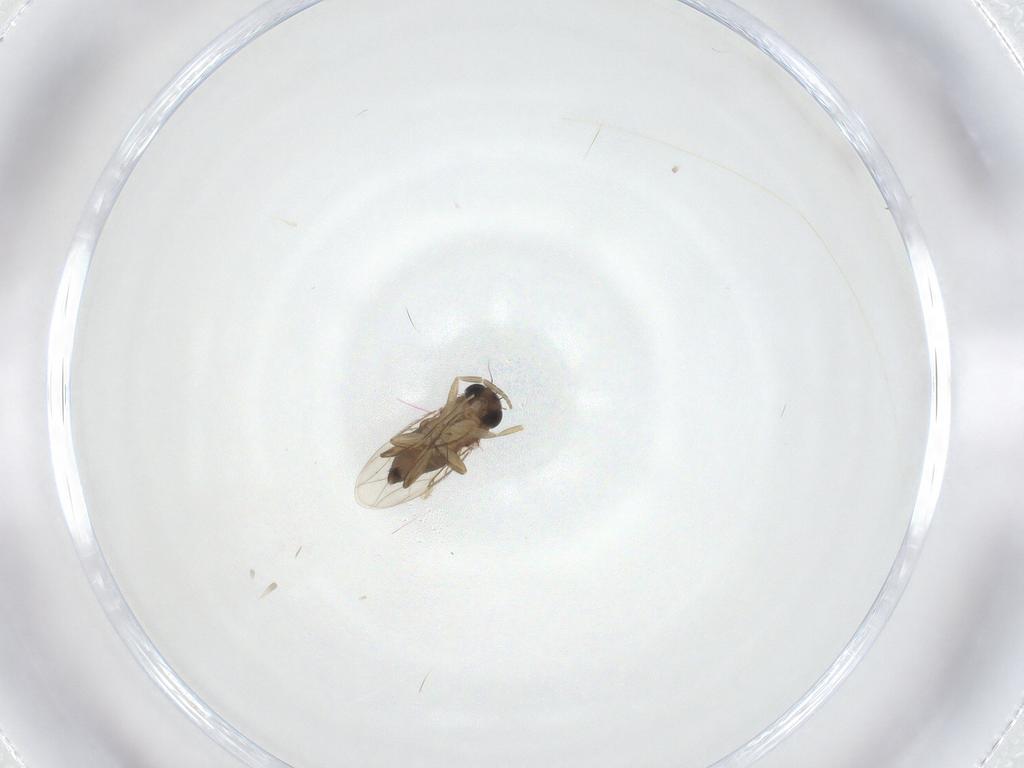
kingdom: Animalia
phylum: Arthropoda
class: Insecta
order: Diptera
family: Phoridae
